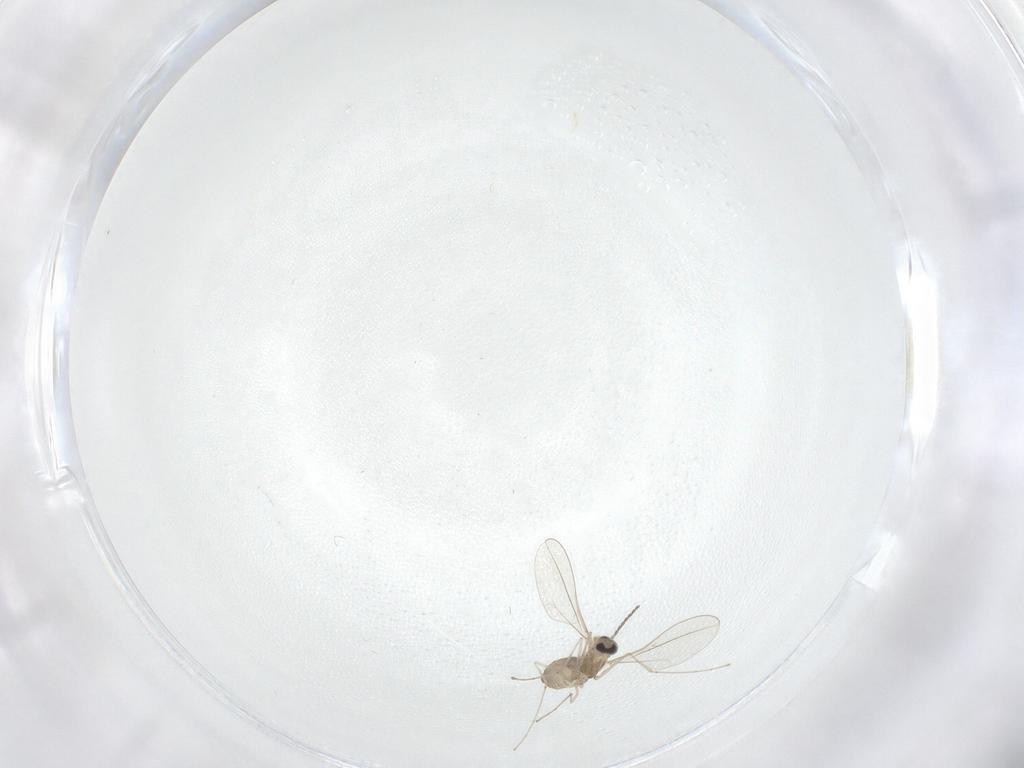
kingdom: Animalia
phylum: Arthropoda
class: Insecta
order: Diptera
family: Cecidomyiidae
